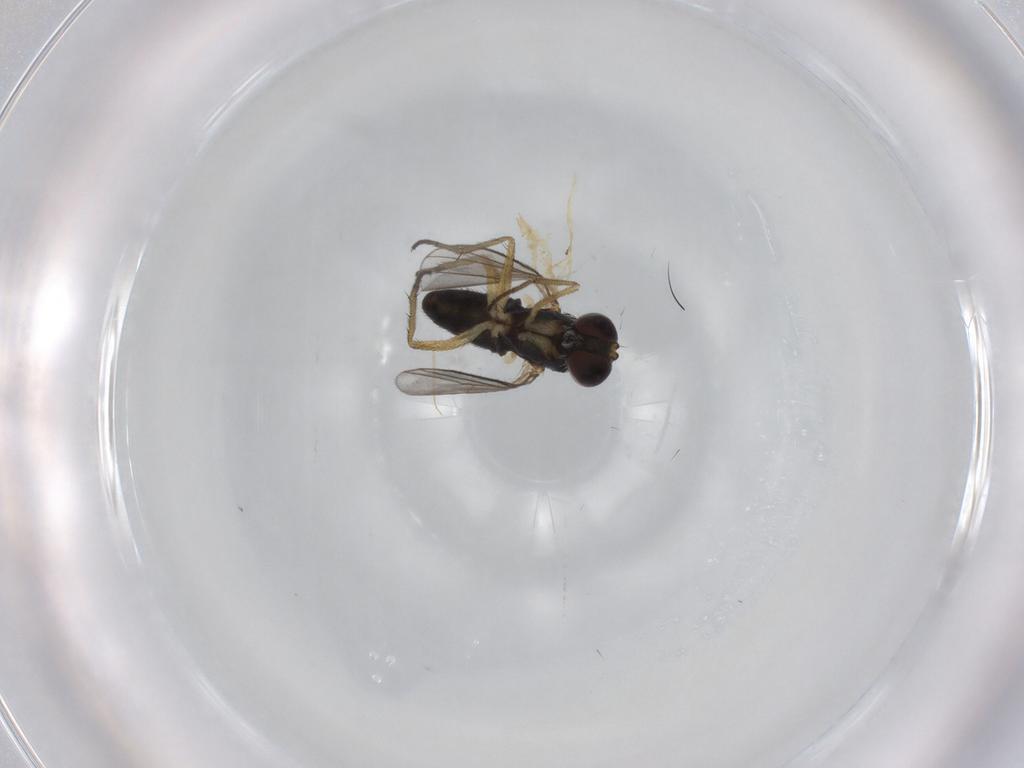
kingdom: Animalia
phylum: Arthropoda
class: Insecta
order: Diptera
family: Dolichopodidae
